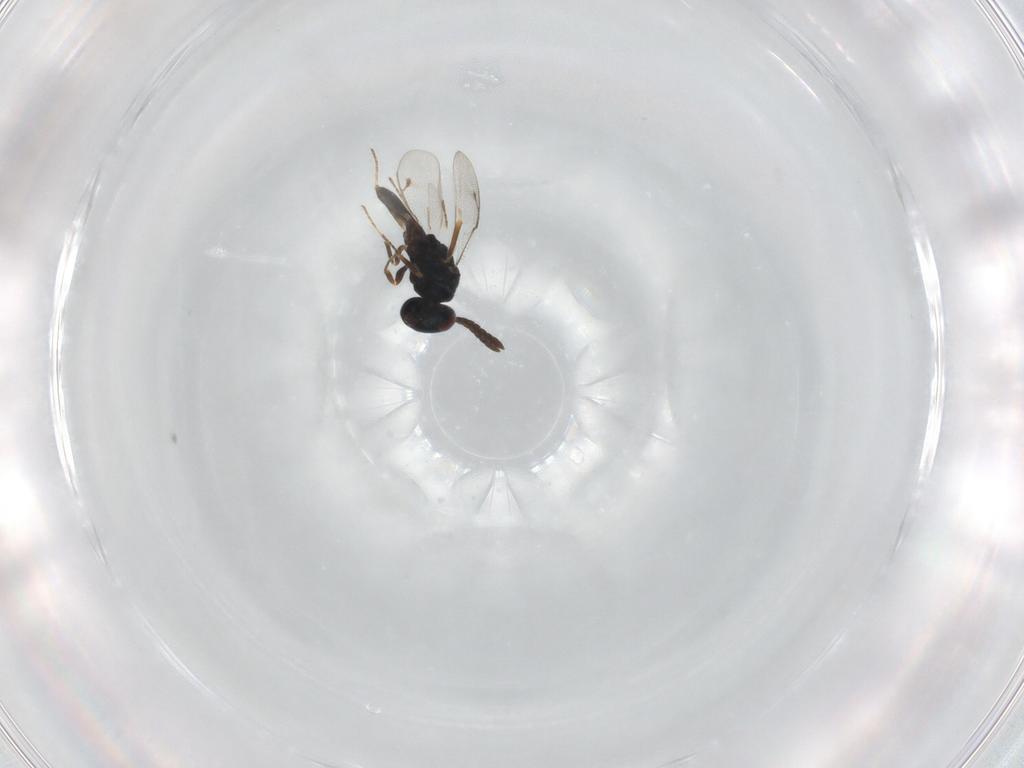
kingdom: Animalia
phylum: Arthropoda
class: Insecta
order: Hymenoptera
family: Pteromalidae
